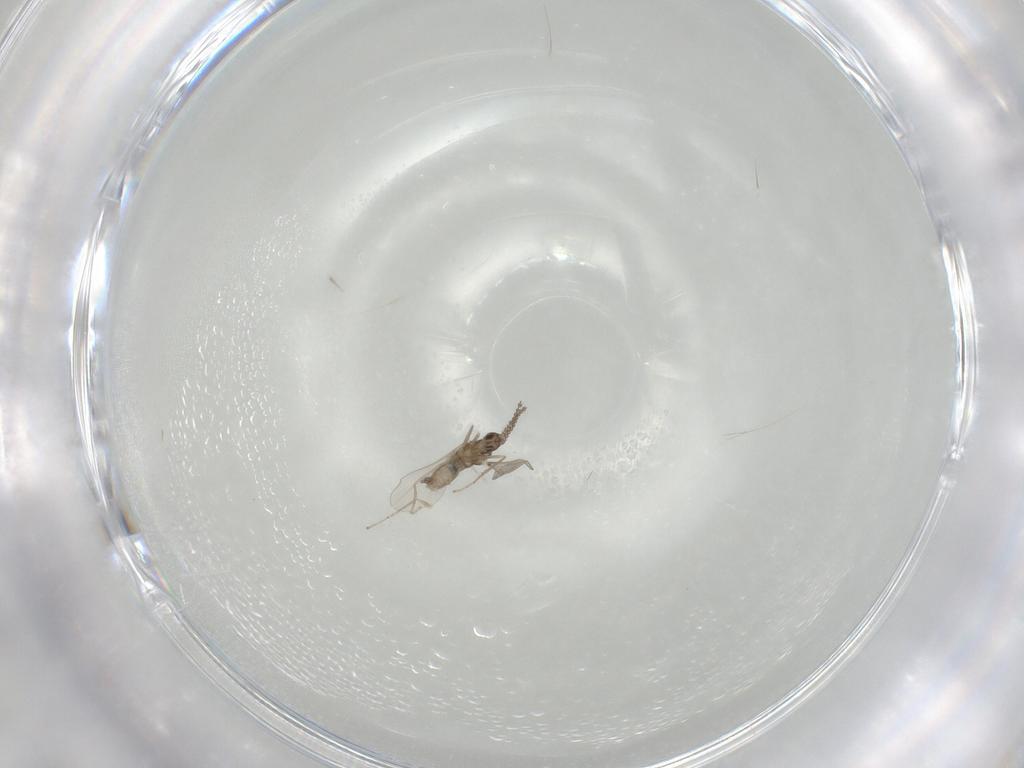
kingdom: Animalia
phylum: Arthropoda
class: Insecta
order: Diptera
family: Cecidomyiidae
